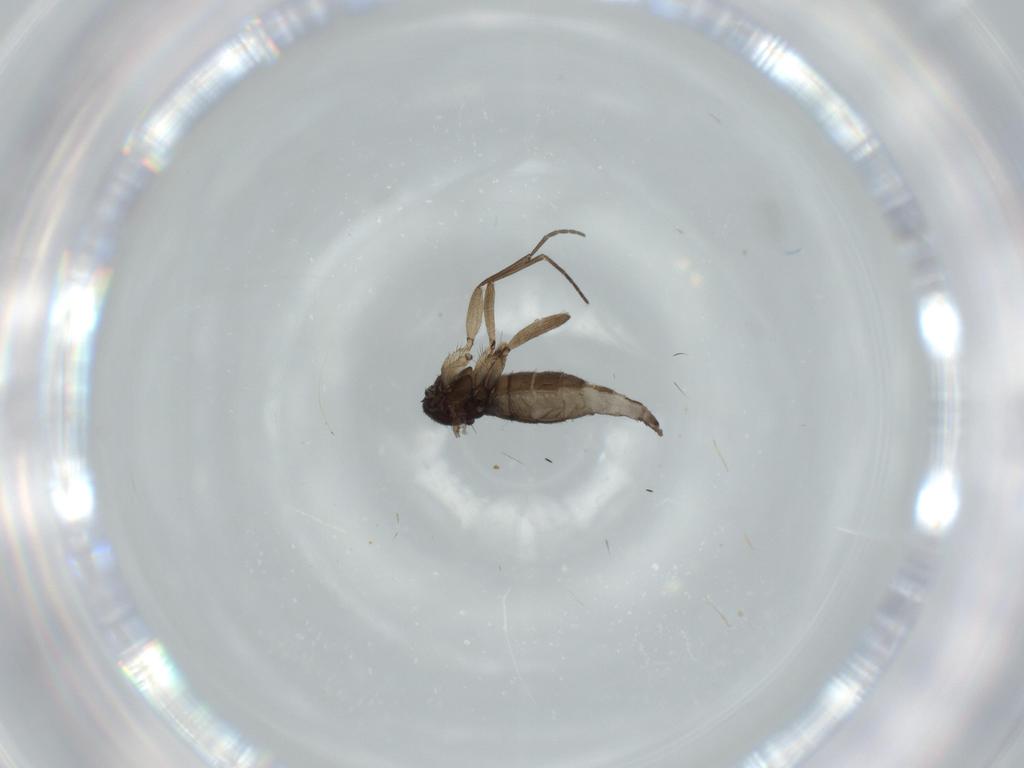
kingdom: Animalia
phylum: Arthropoda
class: Insecta
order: Diptera
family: Sciaridae
